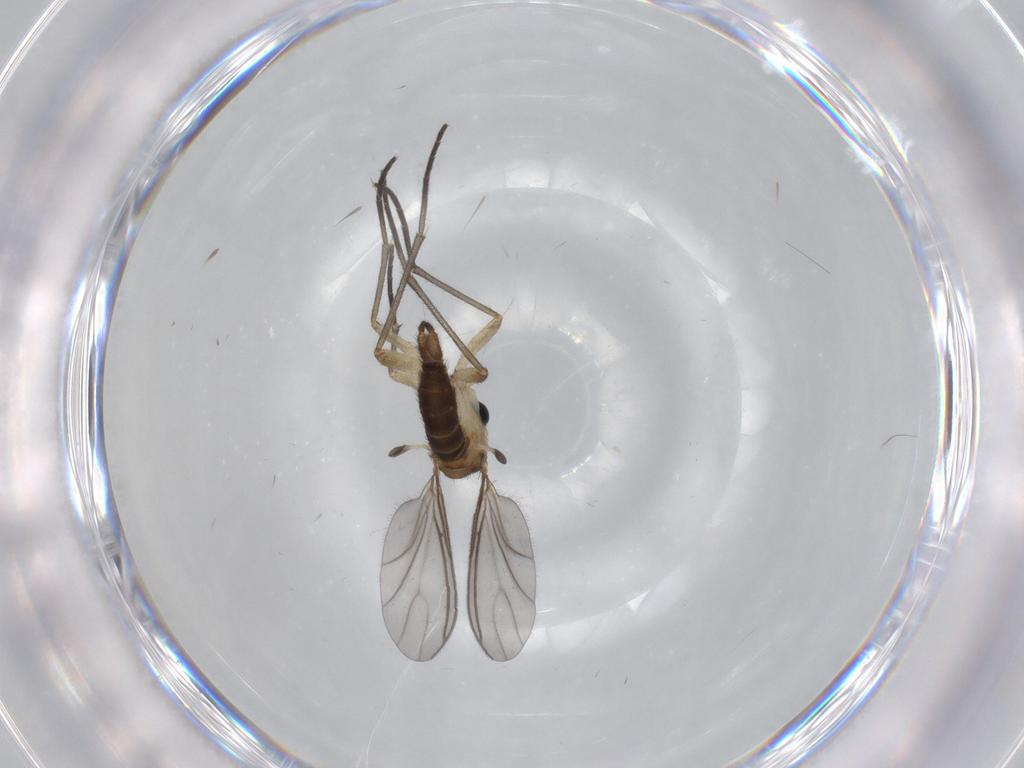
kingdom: Animalia
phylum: Arthropoda
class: Insecta
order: Diptera
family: Sciaridae
